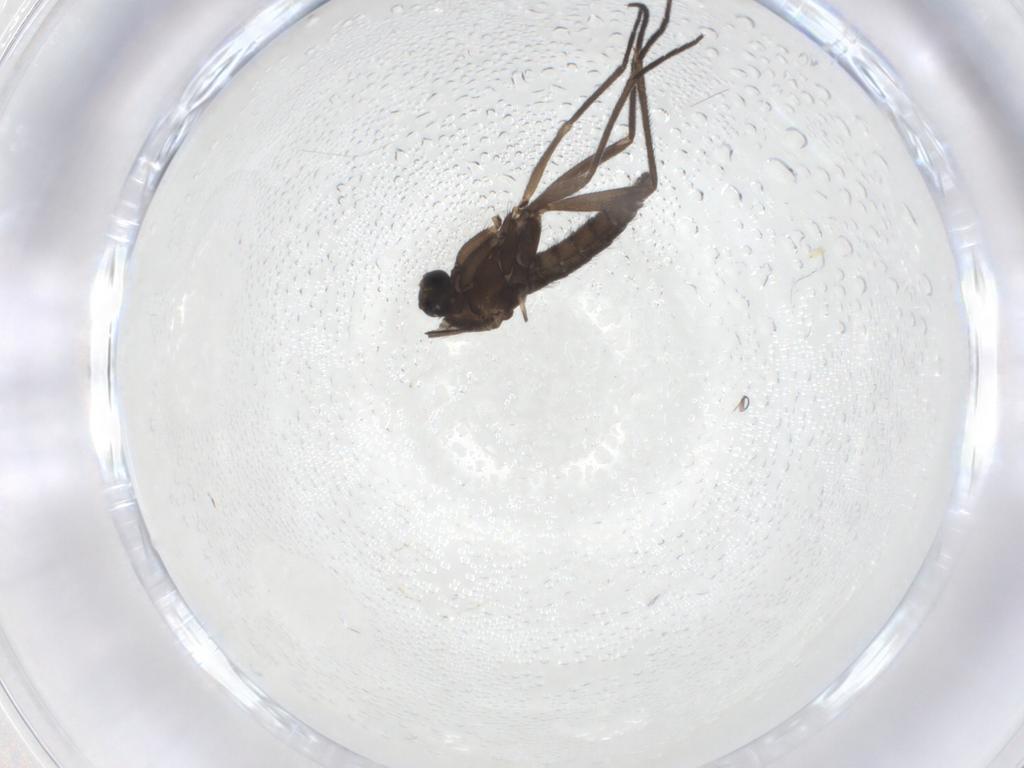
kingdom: Animalia
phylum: Arthropoda
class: Insecta
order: Diptera
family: Sciaridae
